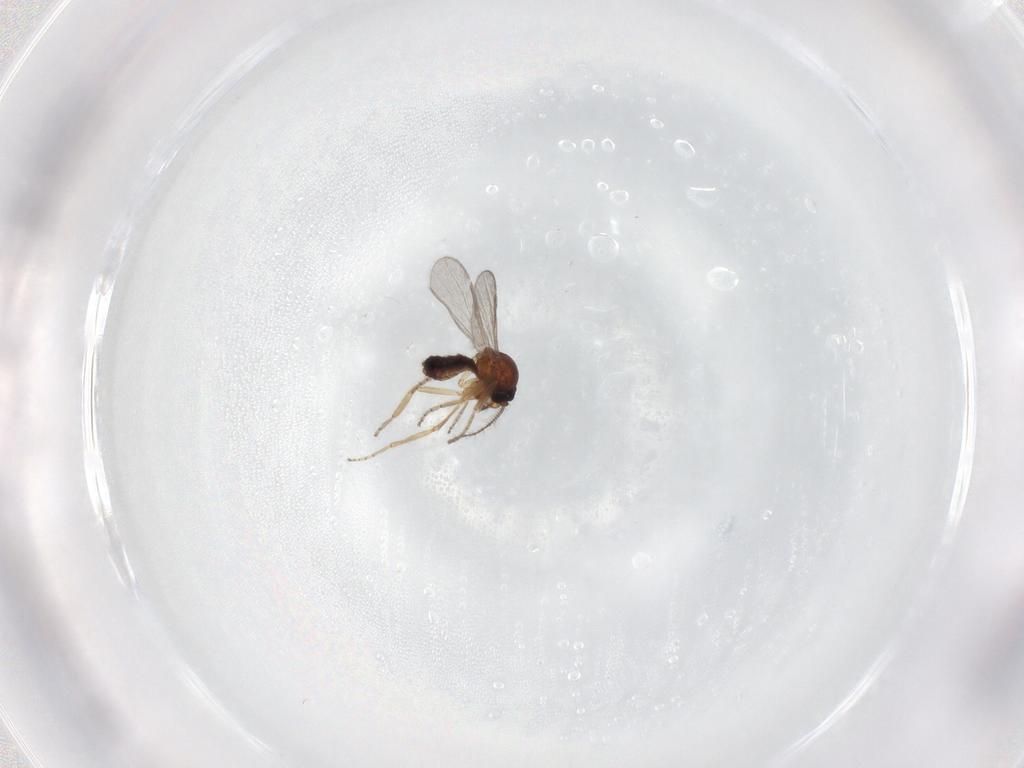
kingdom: Animalia
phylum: Arthropoda
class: Insecta
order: Diptera
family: Ceratopogonidae
